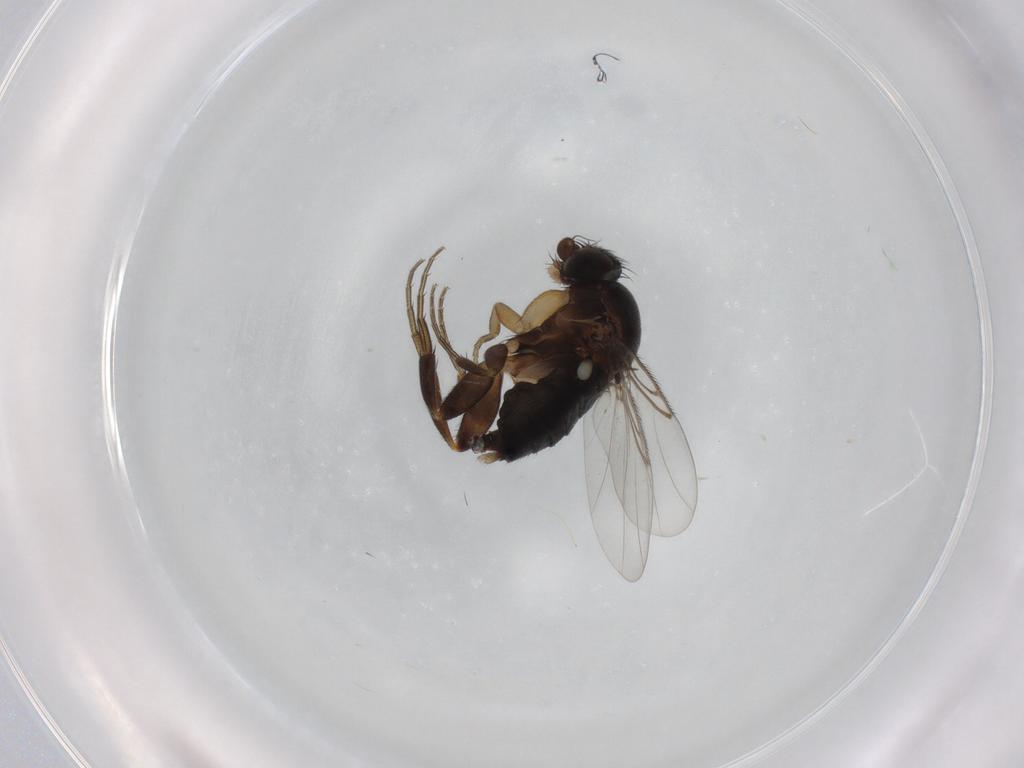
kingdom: Animalia
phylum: Arthropoda
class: Insecta
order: Diptera
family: Phoridae
